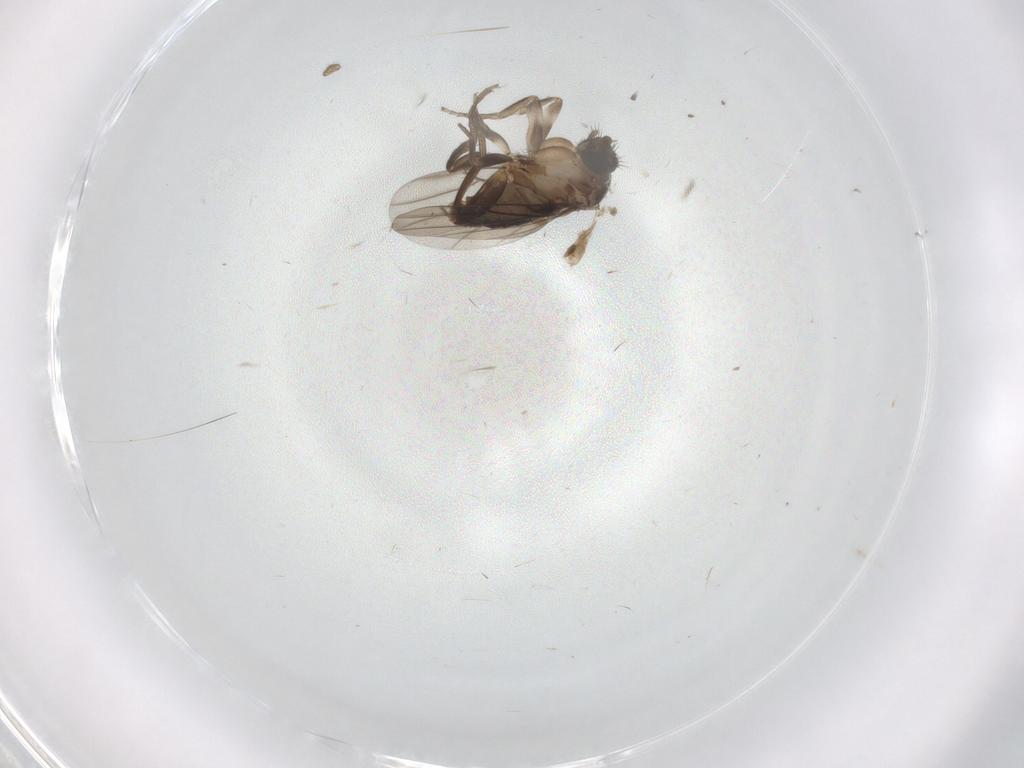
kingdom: Animalia
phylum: Arthropoda
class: Insecta
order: Diptera
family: Phoridae
